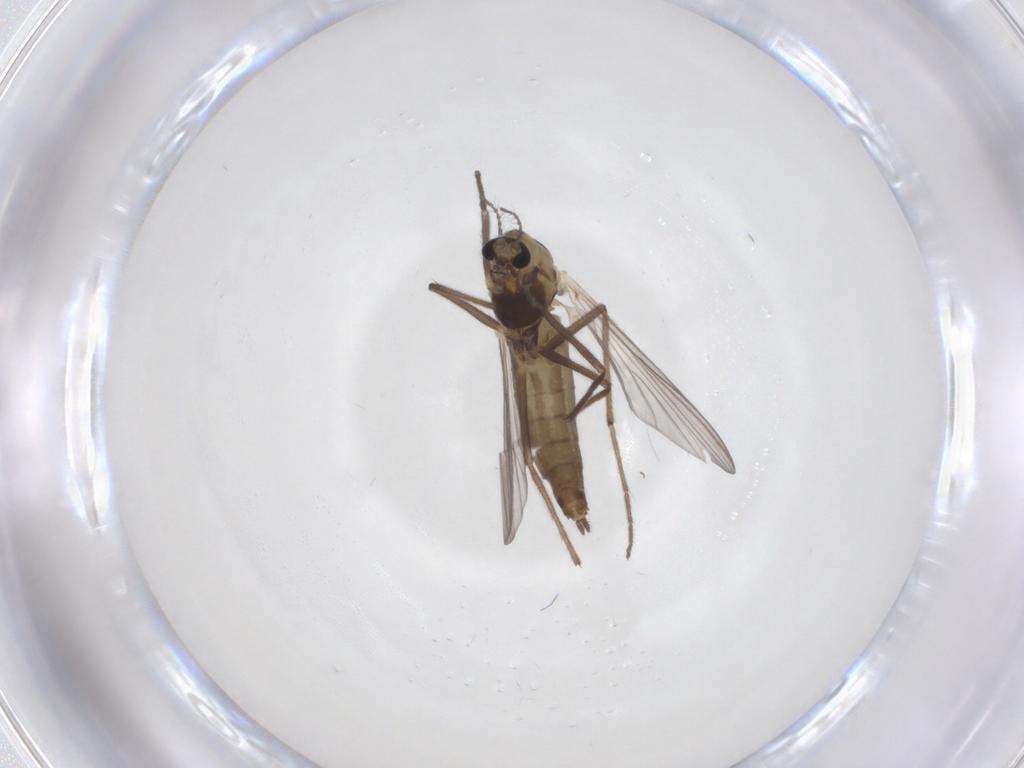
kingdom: Animalia
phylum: Arthropoda
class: Insecta
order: Diptera
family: Chironomidae
